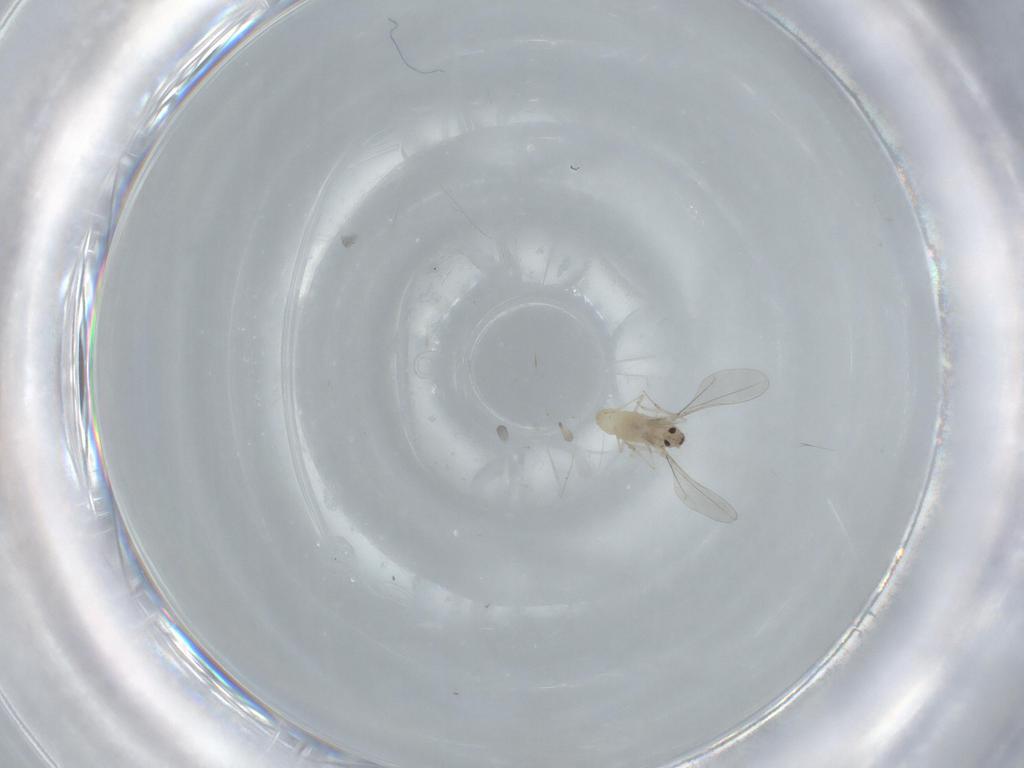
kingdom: Animalia
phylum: Arthropoda
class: Insecta
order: Diptera
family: Cecidomyiidae
